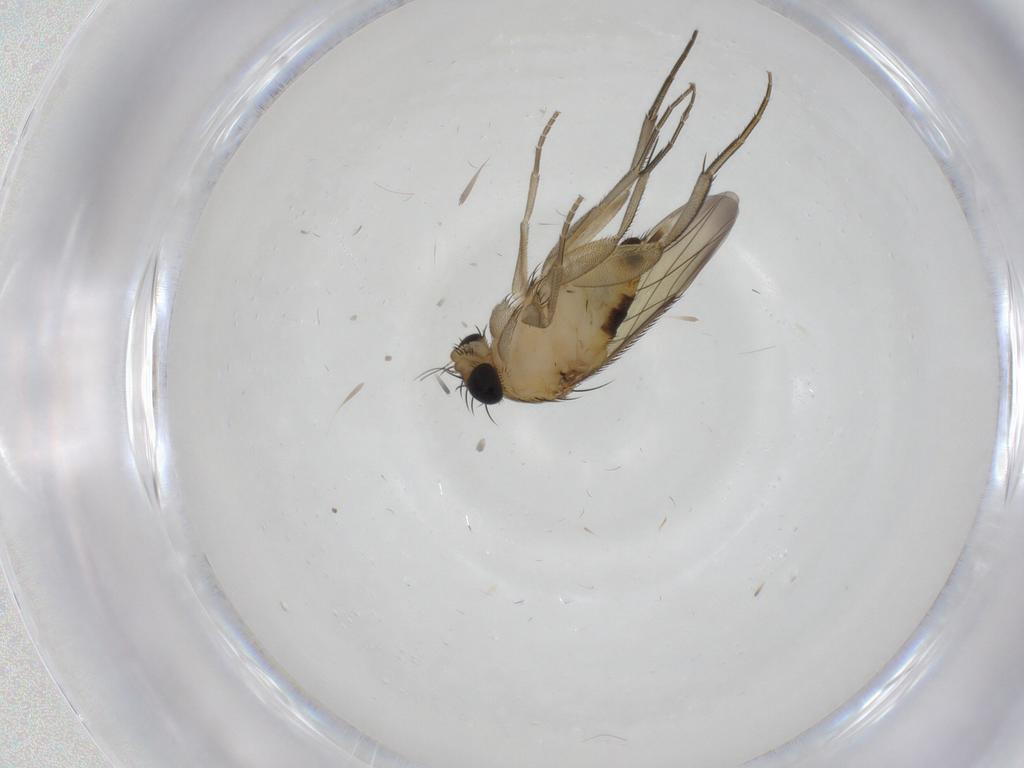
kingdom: Animalia
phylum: Arthropoda
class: Insecta
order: Diptera
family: Phoridae
